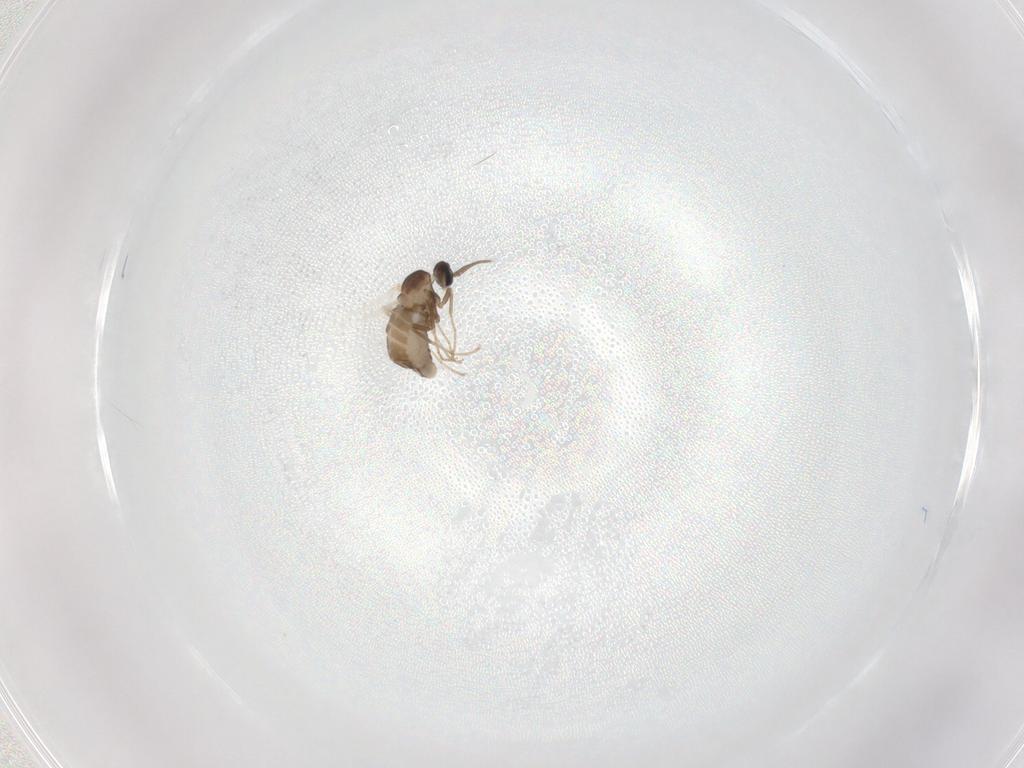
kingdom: Animalia
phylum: Arthropoda
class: Insecta
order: Diptera
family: Cecidomyiidae
